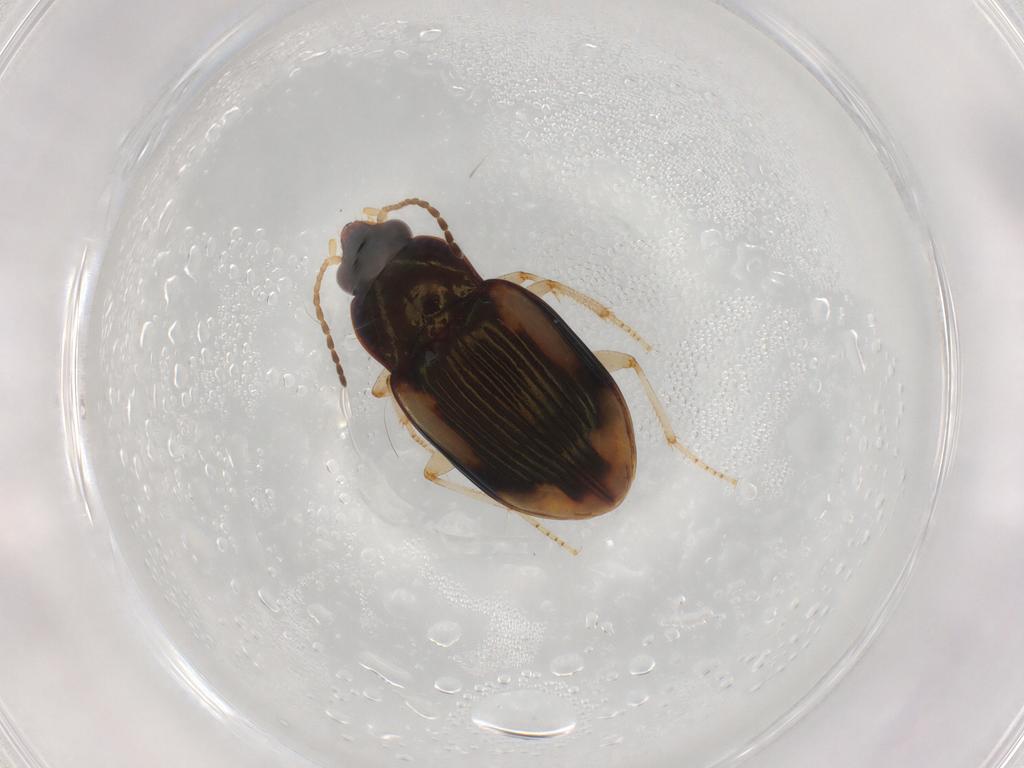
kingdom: Animalia
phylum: Arthropoda
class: Insecta
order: Coleoptera
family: Carabidae
